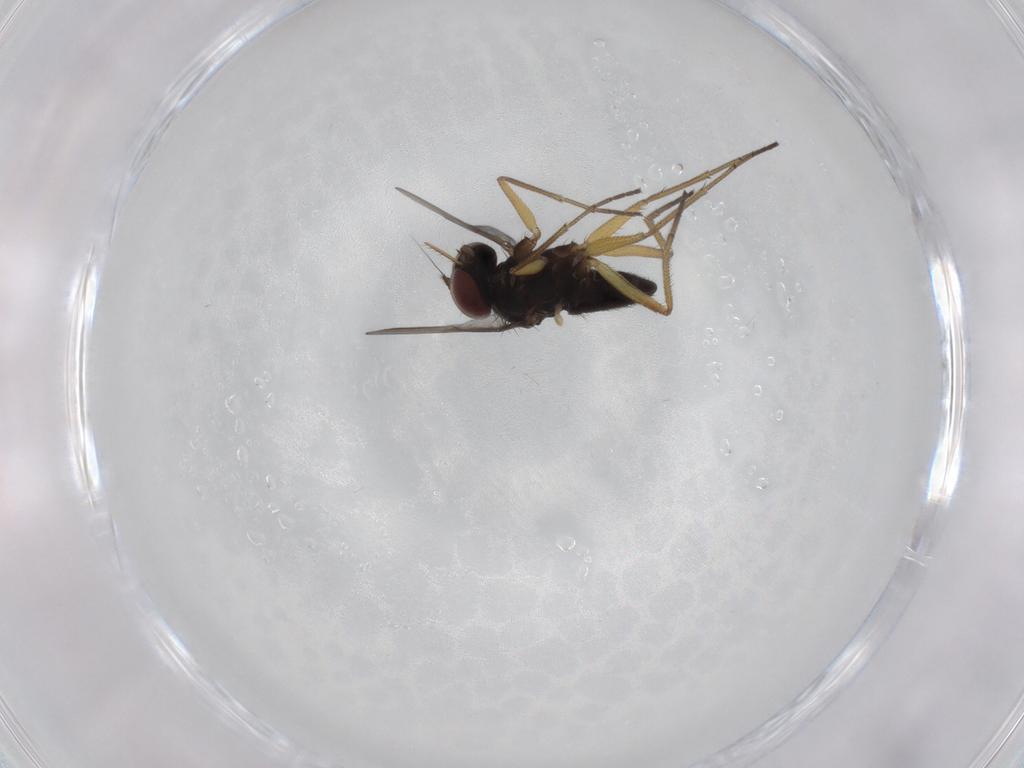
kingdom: Animalia
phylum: Arthropoda
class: Insecta
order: Diptera
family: Dolichopodidae
